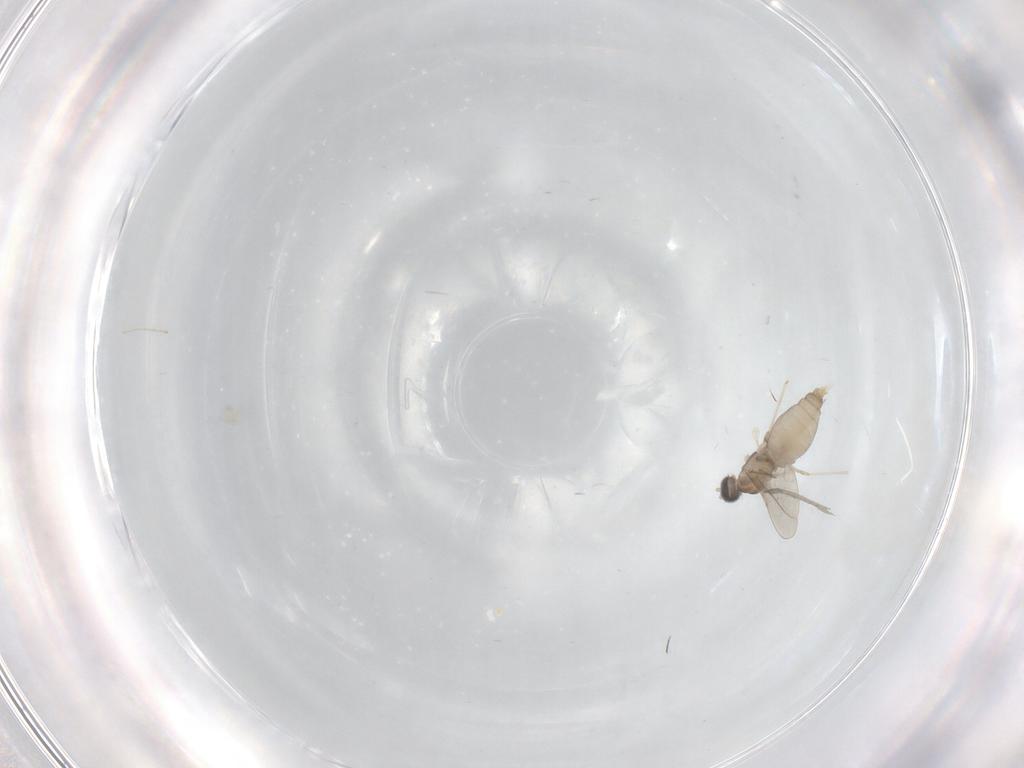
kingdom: Animalia
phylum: Arthropoda
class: Insecta
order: Diptera
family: Cecidomyiidae
